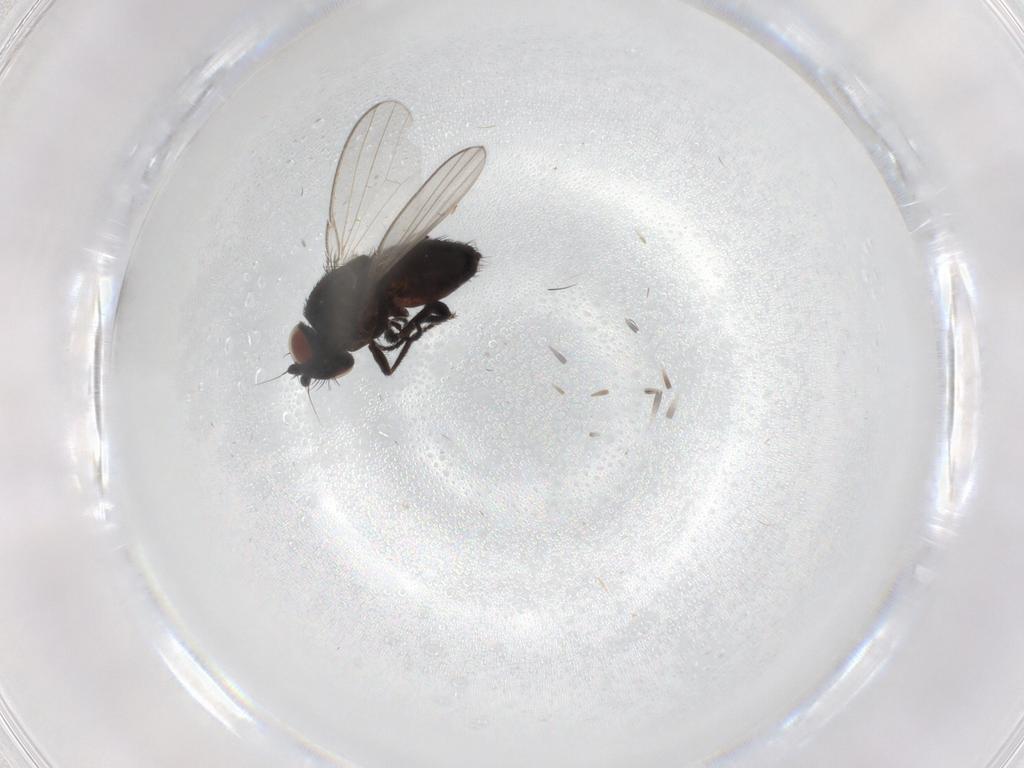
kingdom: Animalia
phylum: Arthropoda
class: Insecta
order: Diptera
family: Milichiidae
